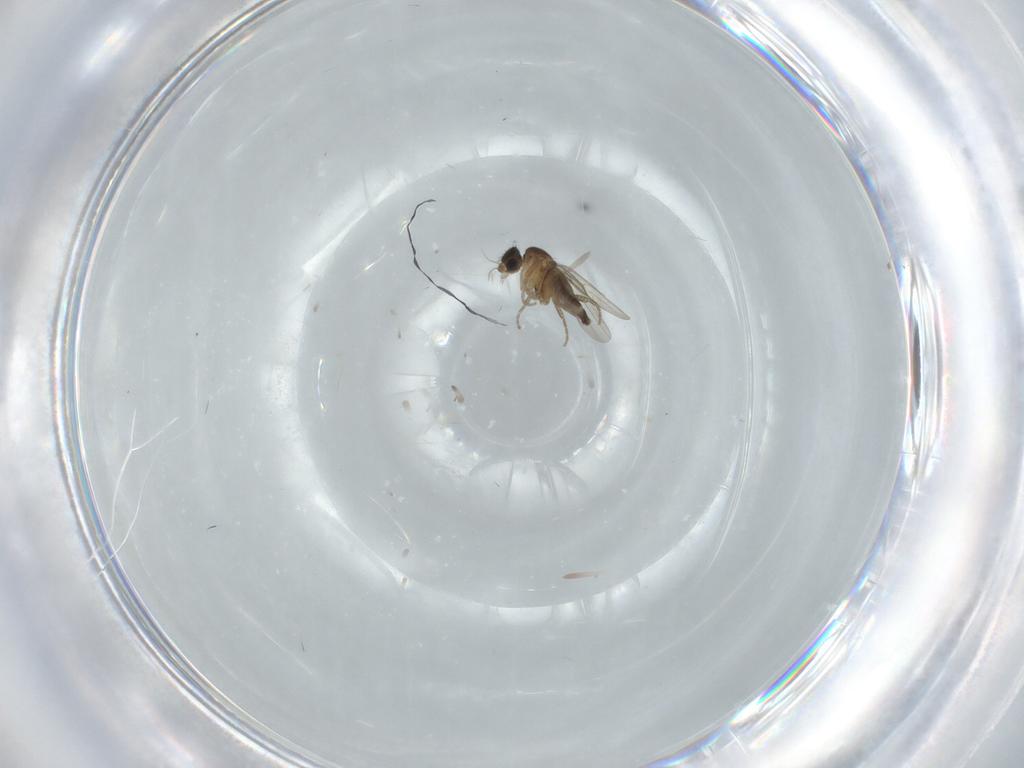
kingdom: Animalia
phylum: Arthropoda
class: Insecta
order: Diptera
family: Phoridae
